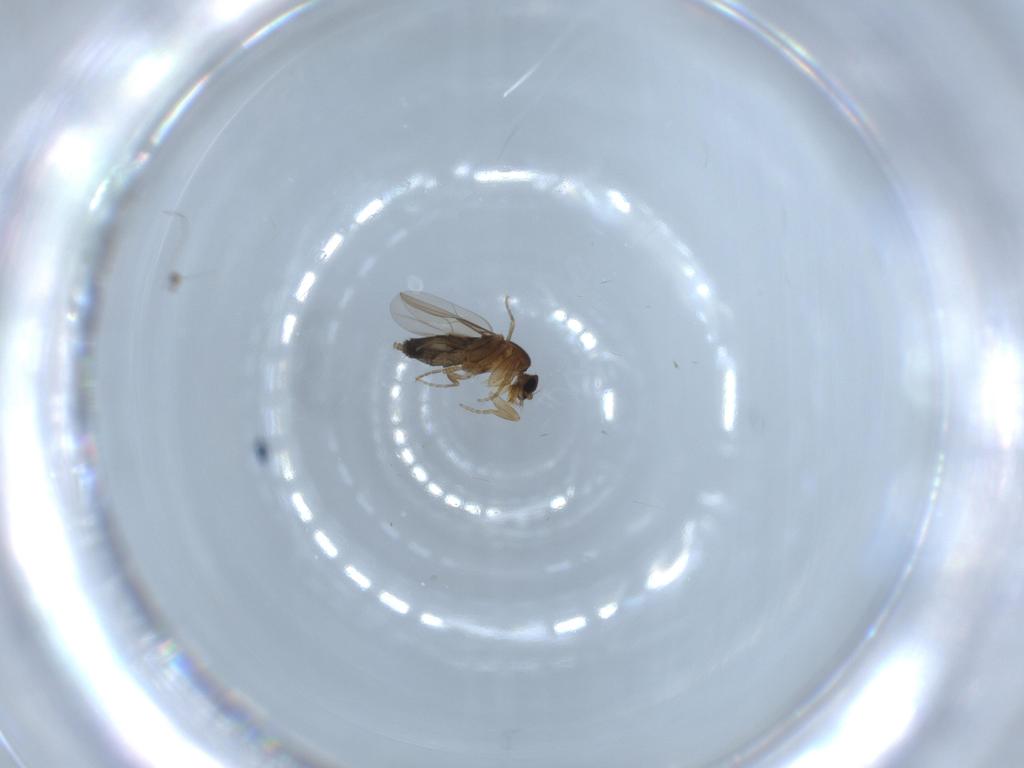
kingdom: Animalia
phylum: Arthropoda
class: Insecta
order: Diptera
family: Phoridae
